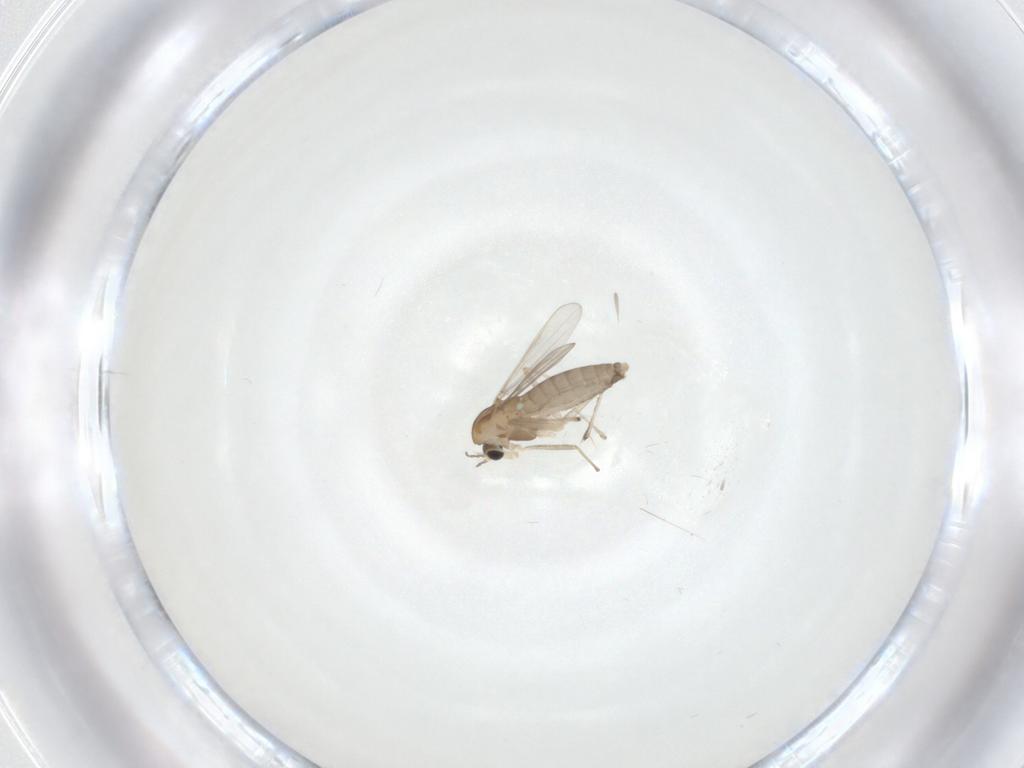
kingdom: Animalia
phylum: Arthropoda
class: Insecta
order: Diptera
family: Chironomidae
